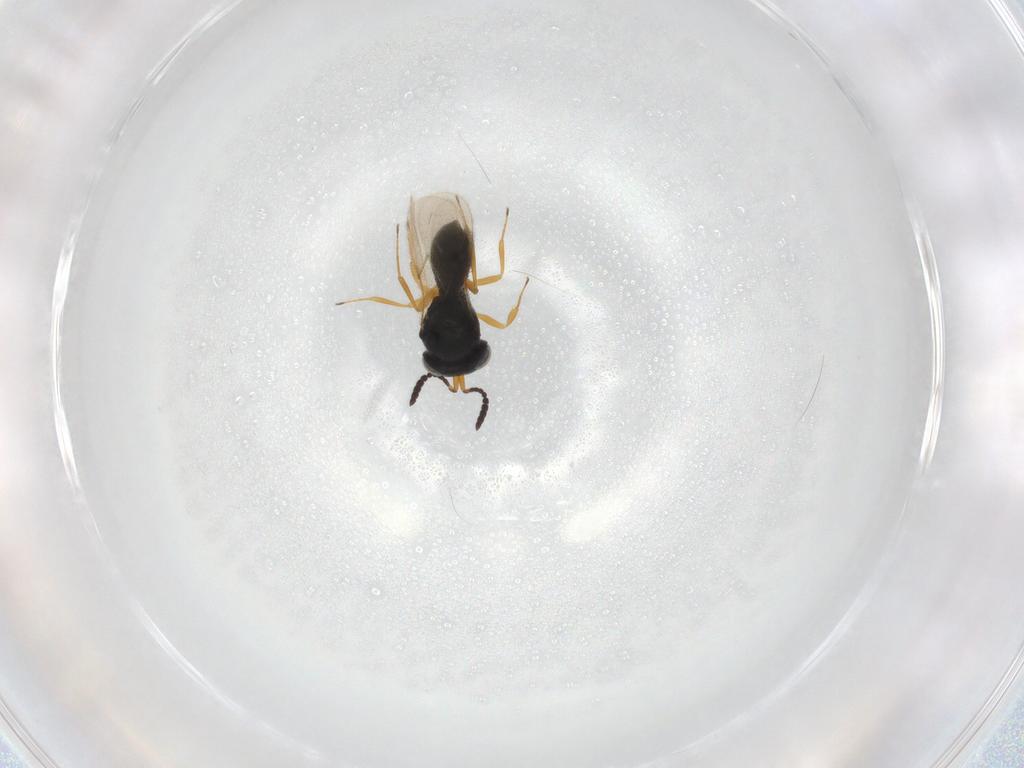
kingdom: Animalia
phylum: Arthropoda
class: Insecta
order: Hymenoptera
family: Scelionidae
